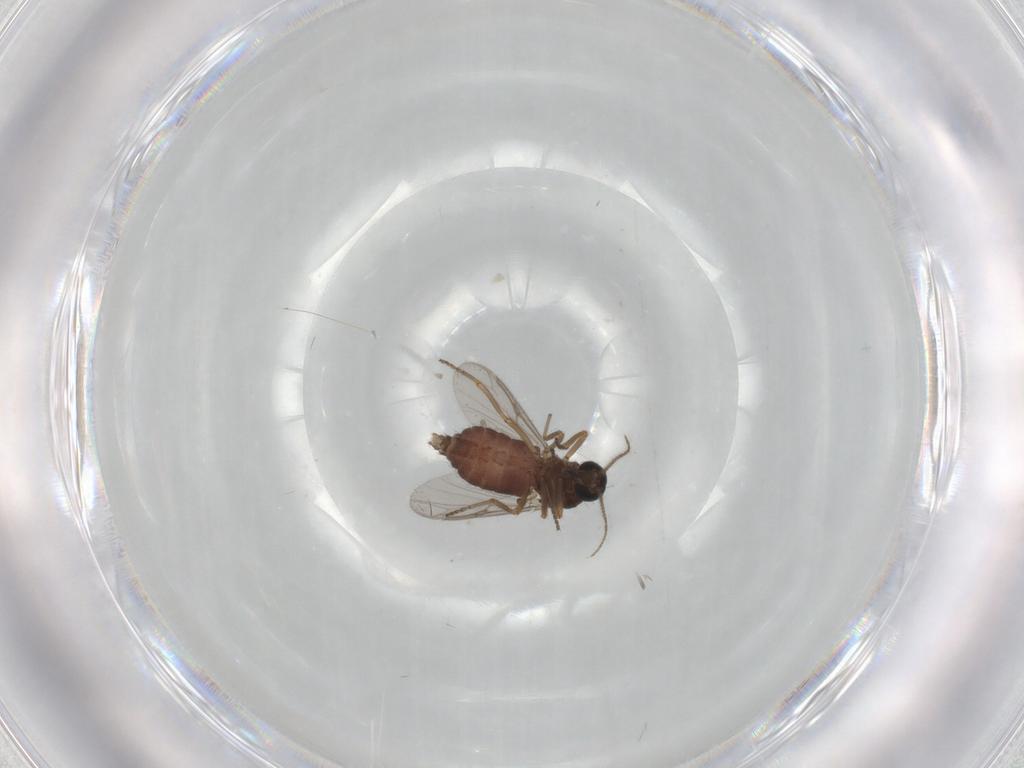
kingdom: Animalia
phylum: Arthropoda
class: Insecta
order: Diptera
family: Ceratopogonidae
